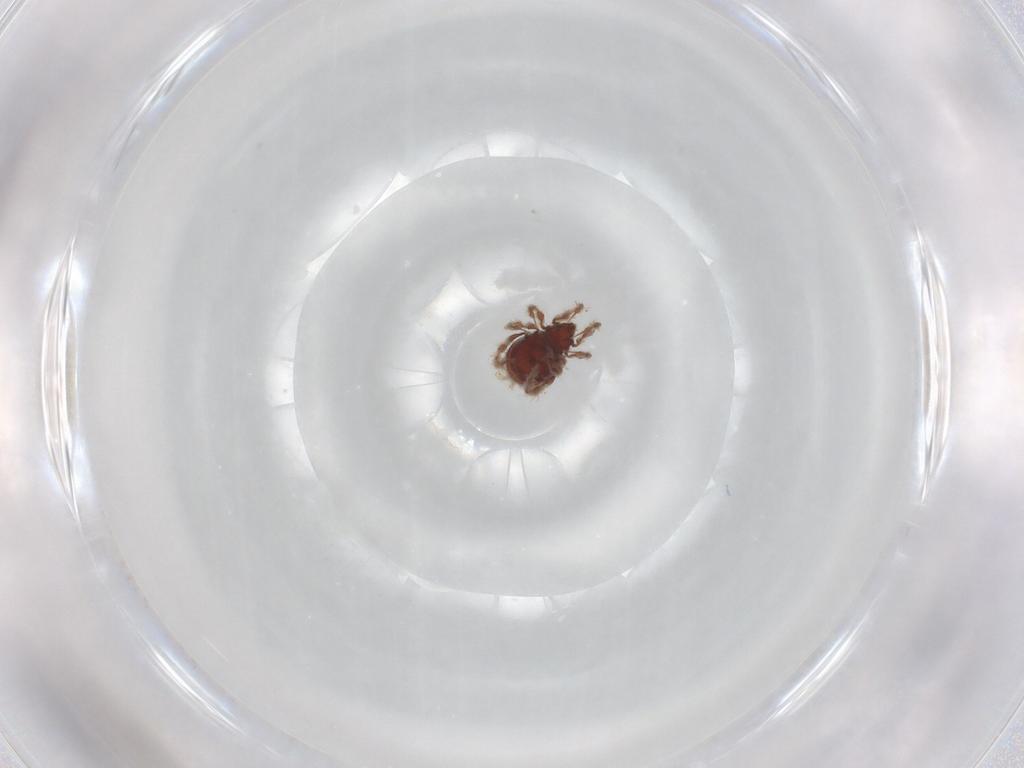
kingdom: Animalia
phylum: Arthropoda
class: Arachnida
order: Sarcoptiformes
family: Damaeidae
